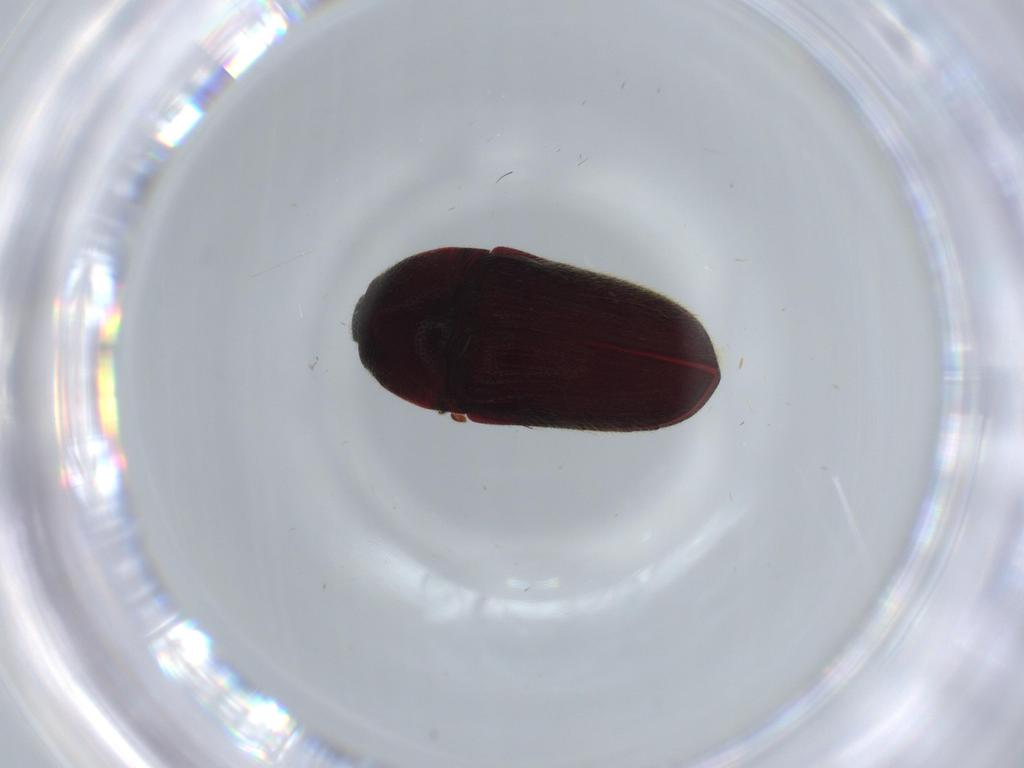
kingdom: Animalia
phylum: Arthropoda
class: Insecta
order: Coleoptera
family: Throscidae
